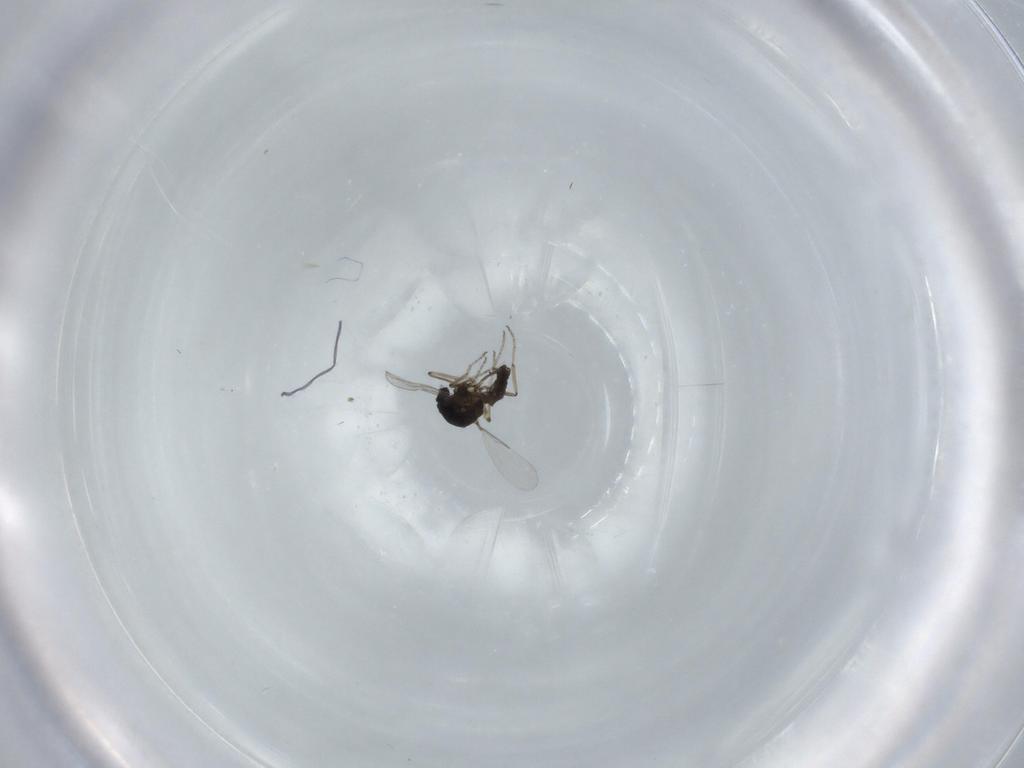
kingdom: Animalia
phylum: Arthropoda
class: Insecta
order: Diptera
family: Ceratopogonidae
